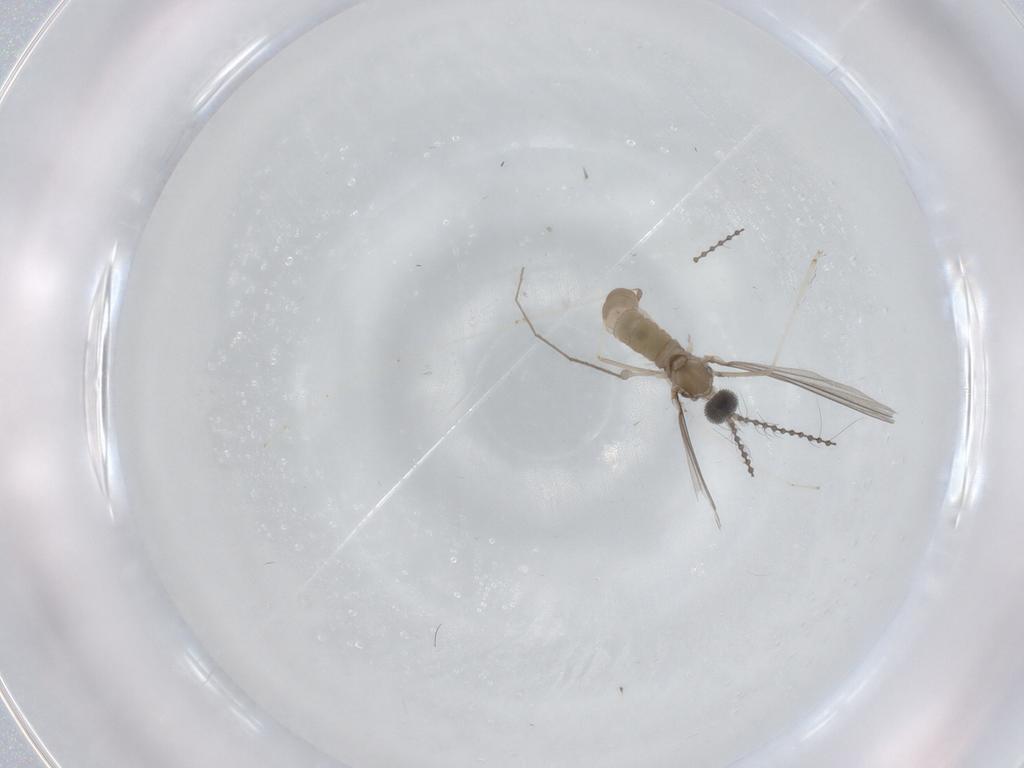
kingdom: Animalia
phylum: Arthropoda
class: Insecta
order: Diptera
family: Cecidomyiidae
